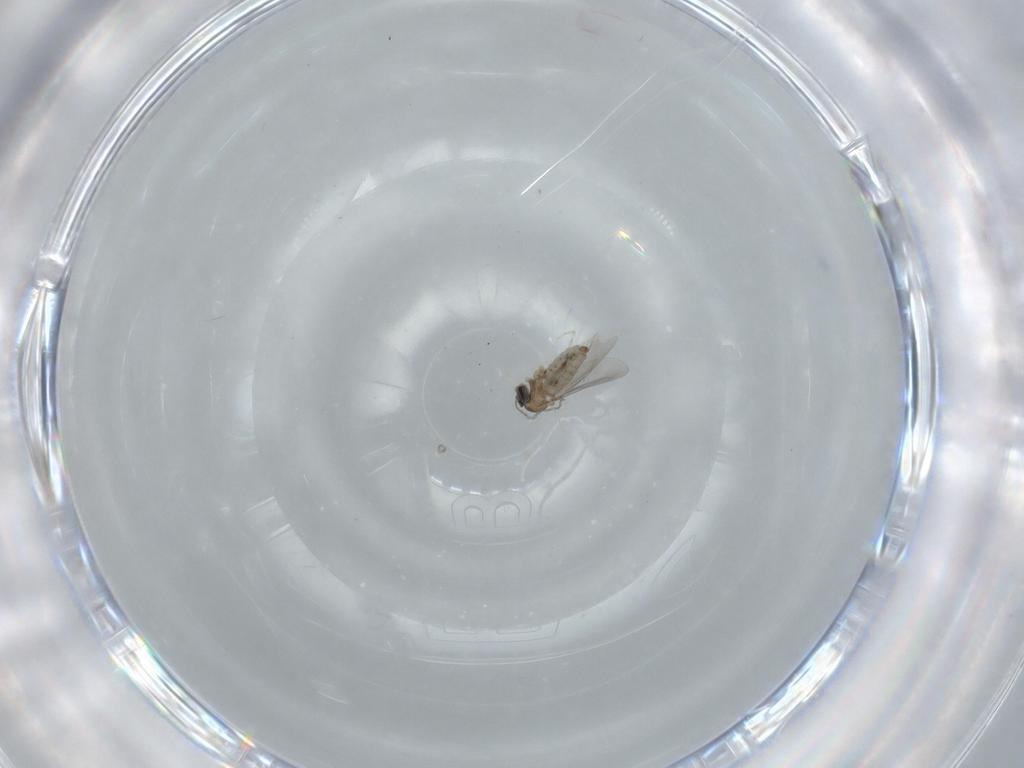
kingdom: Animalia
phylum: Arthropoda
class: Insecta
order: Diptera
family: Cecidomyiidae
